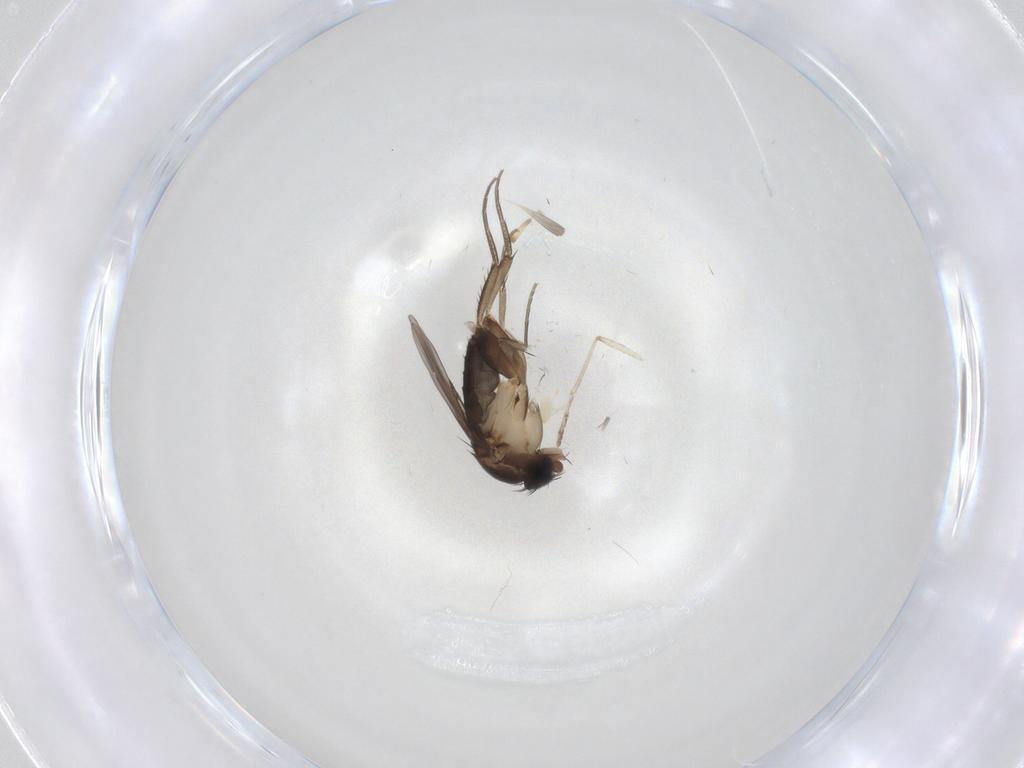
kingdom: Animalia
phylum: Arthropoda
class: Insecta
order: Diptera
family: Phoridae
